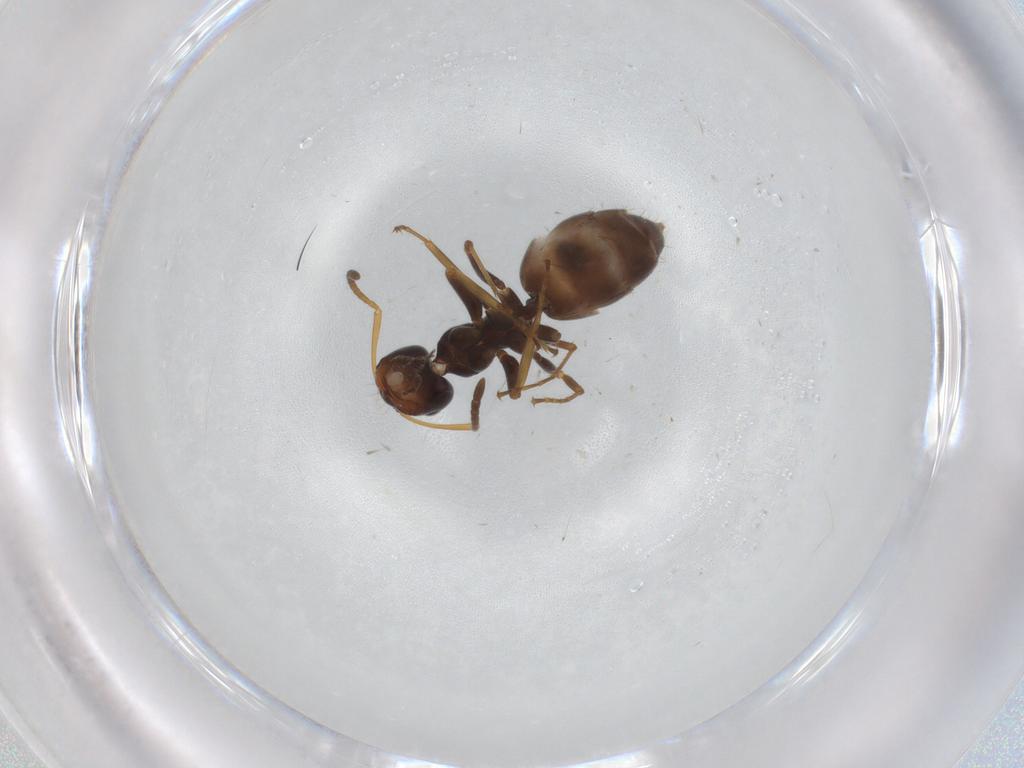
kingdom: Animalia
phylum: Arthropoda
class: Insecta
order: Hymenoptera
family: Formicidae
